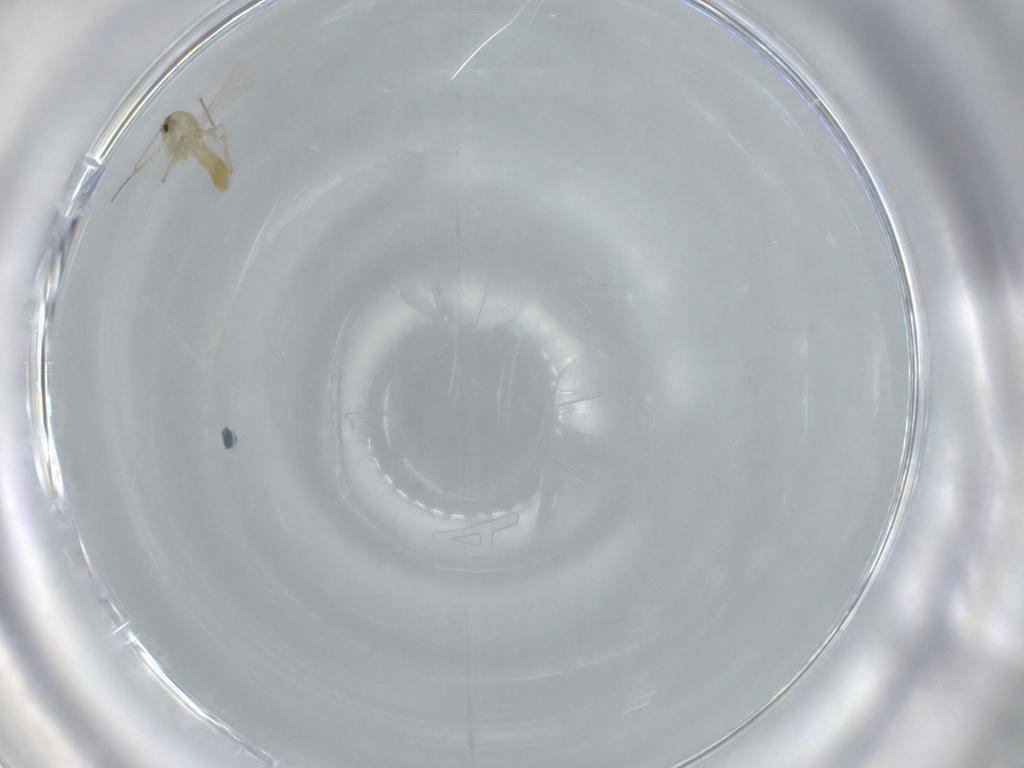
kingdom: Animalia
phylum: Arthropoda
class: Insecta
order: Diptera
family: Chironomidae
